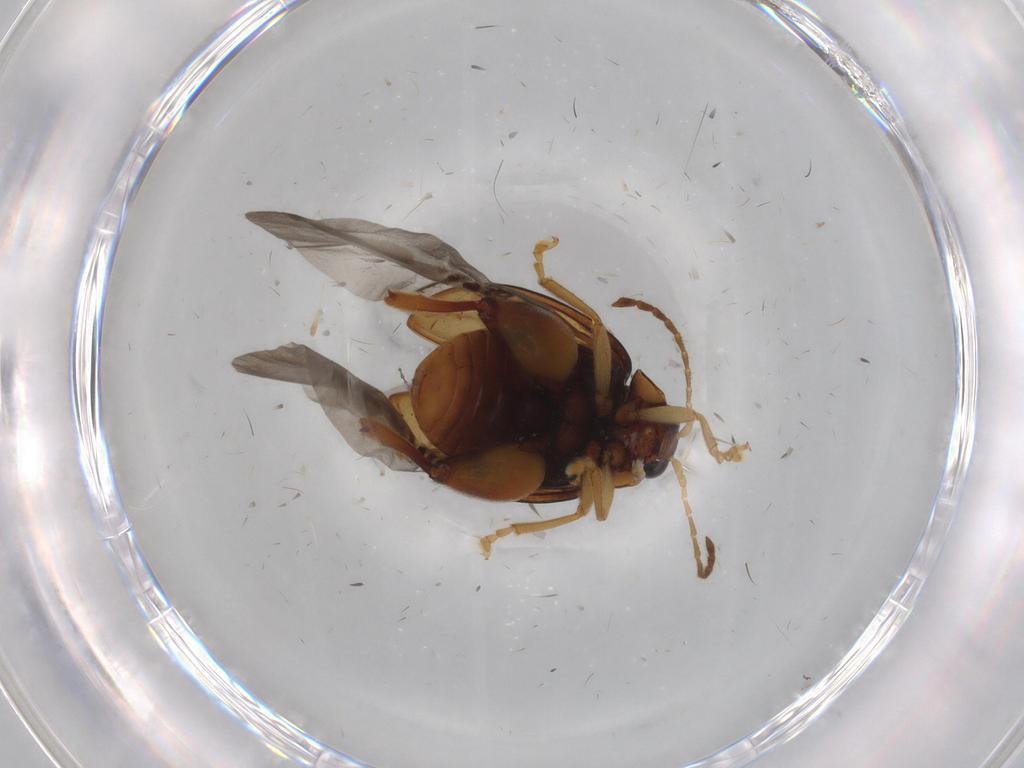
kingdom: Animalia
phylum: Arthropoda
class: Insecta
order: Coleoptera
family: Chrysomelidae
